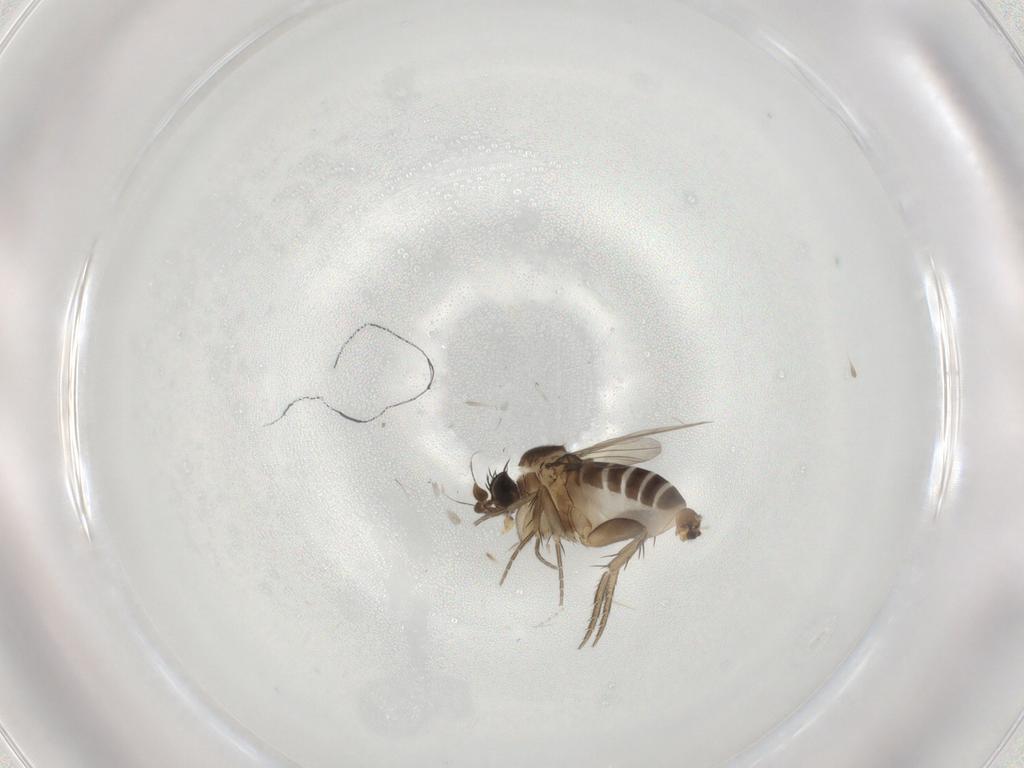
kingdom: Animalia
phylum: Arthropoda
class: Insecta
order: Diptera
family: Phoridae
